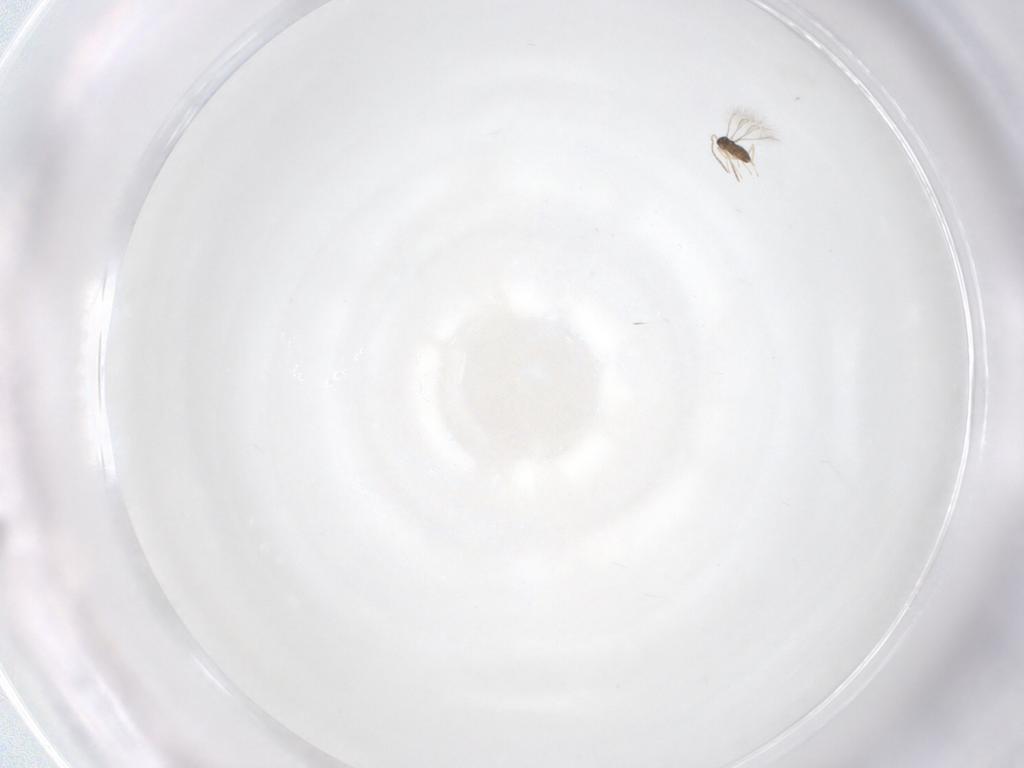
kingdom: Animalia
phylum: Arthropoda
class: Insecta
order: Hymenoptera
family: Mymaridae
